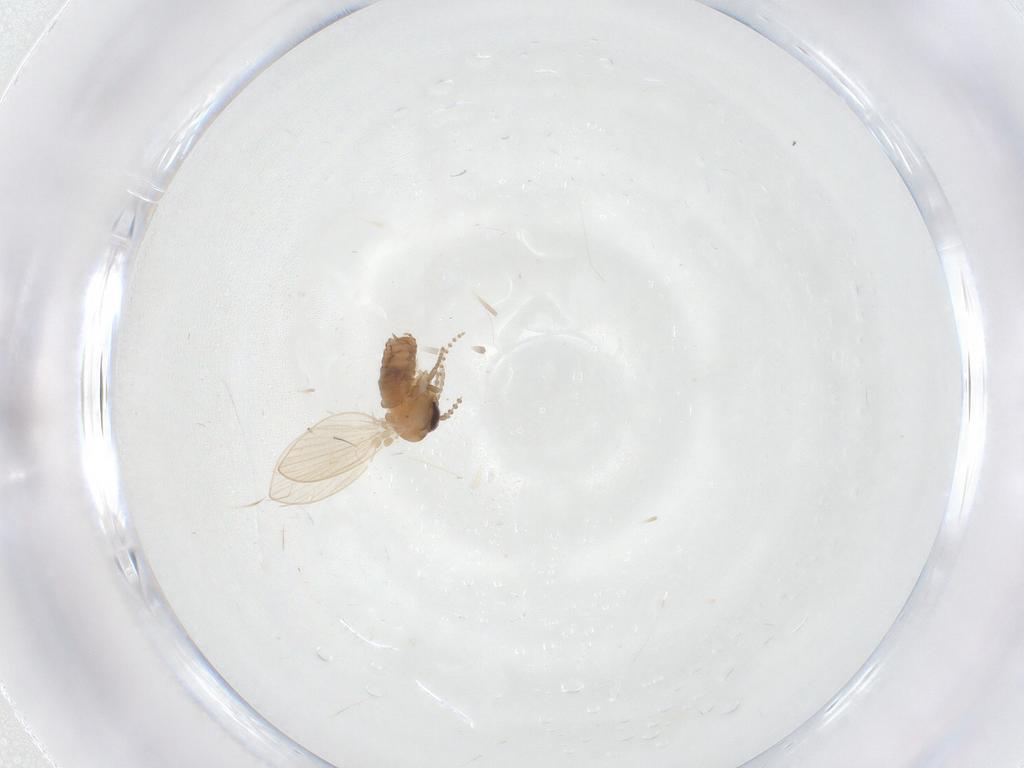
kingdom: Animalia
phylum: Arthropoda
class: Insecta
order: Diptera
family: Psychodidae
